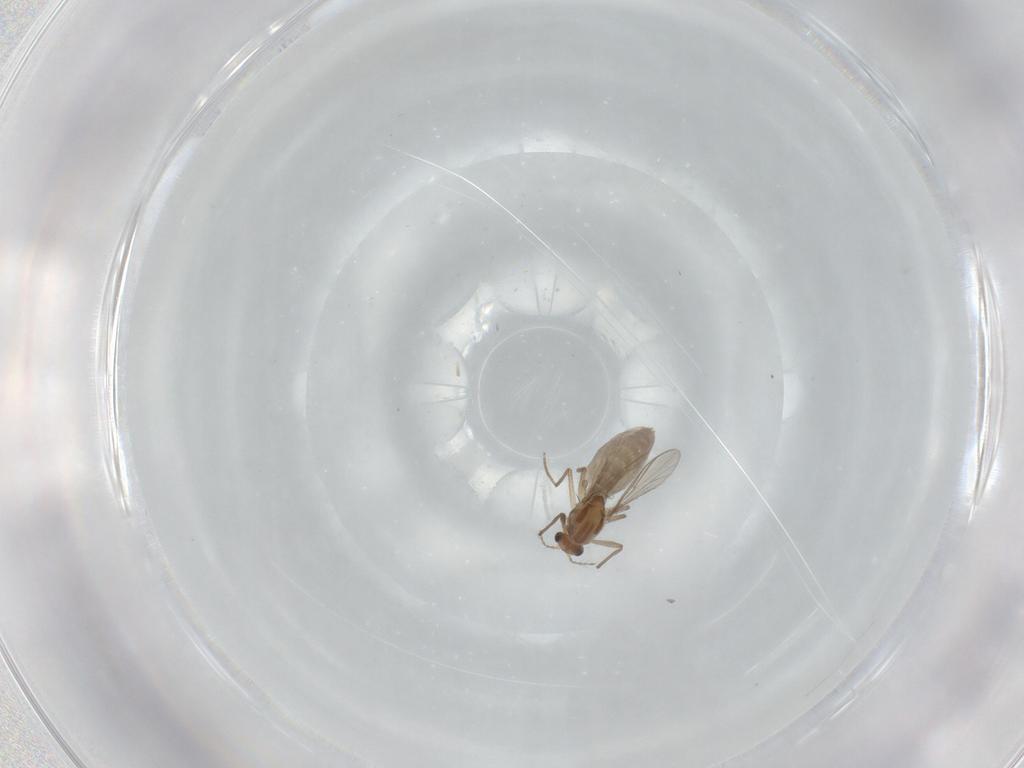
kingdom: Animalia
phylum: Arthropoda
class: Insecta
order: Diptera
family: Chironomidae
